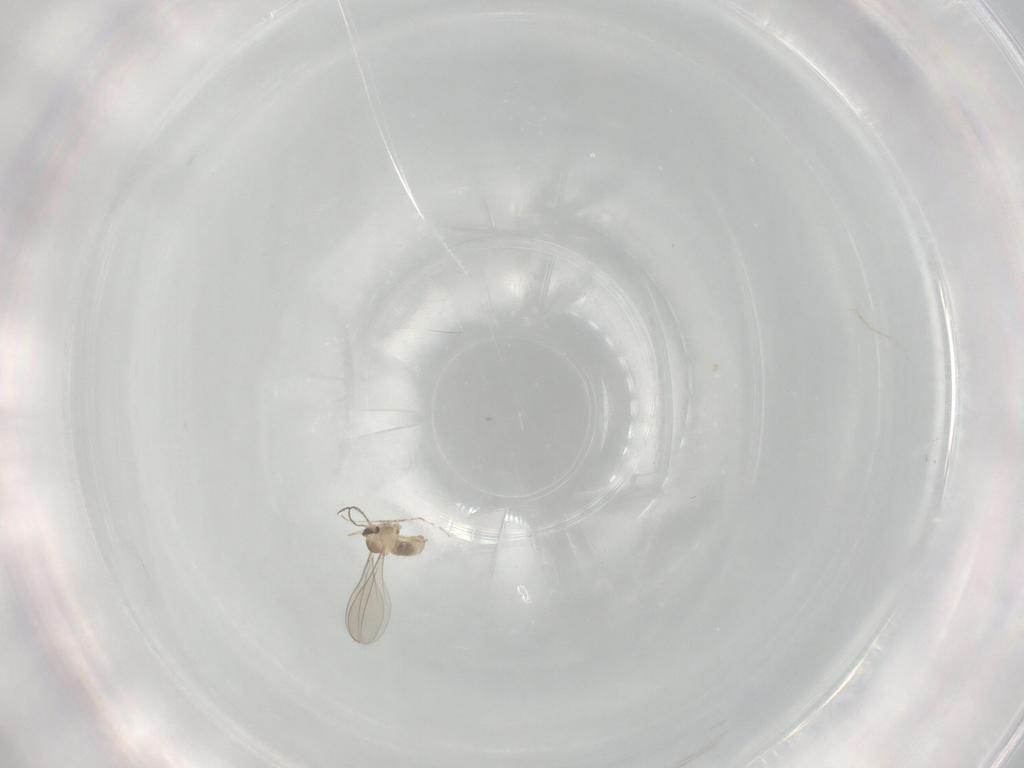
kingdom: Animalia
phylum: Arthropoda
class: Insecta
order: Diptera
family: Cecidomyiidae
